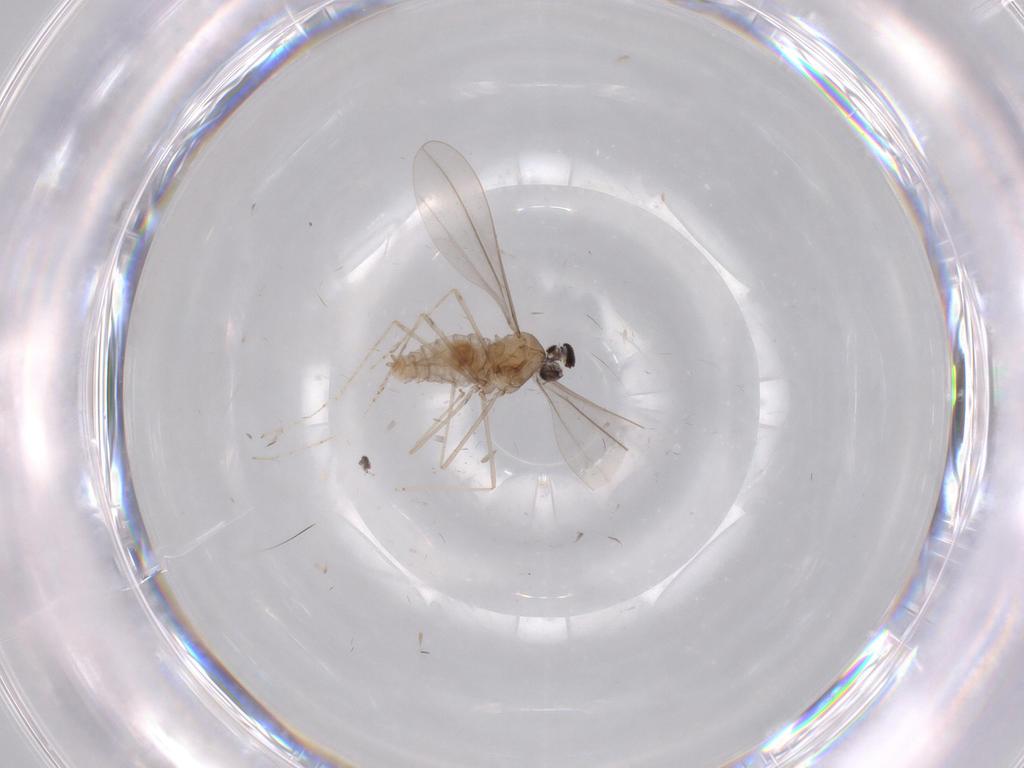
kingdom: Animalia
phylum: Arthropoda
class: Insecta
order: Diptera
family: Cecidomyiidae
